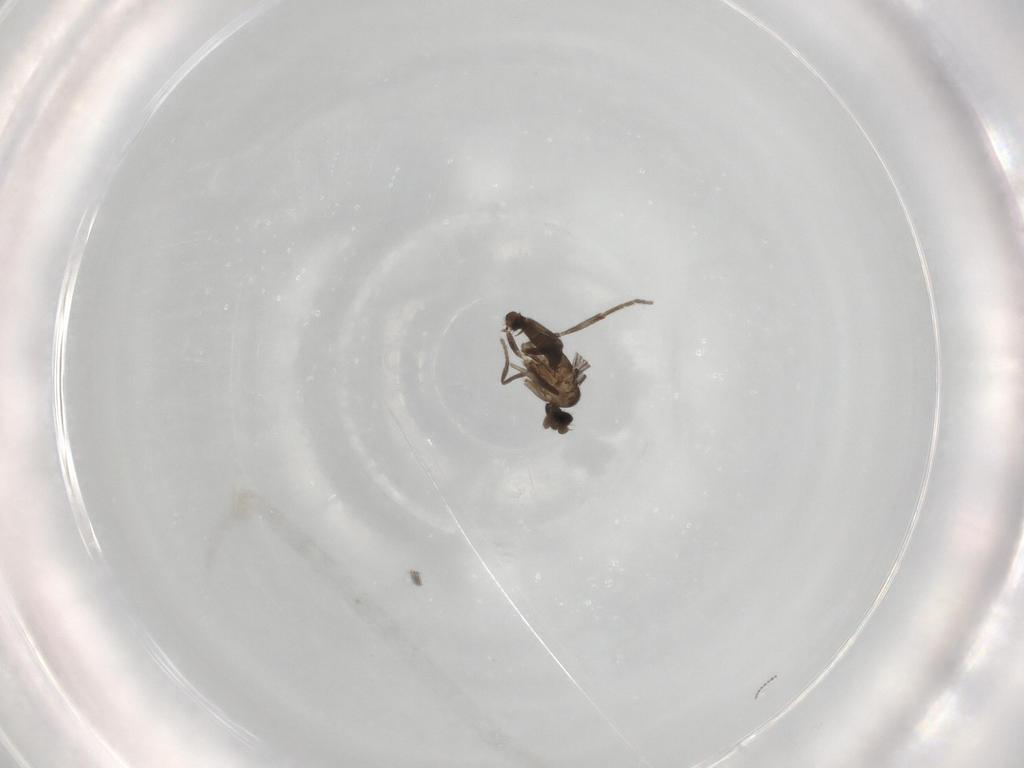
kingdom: Animalia
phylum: Arthropoda
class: Insecta
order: Diptera
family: Phoridae
